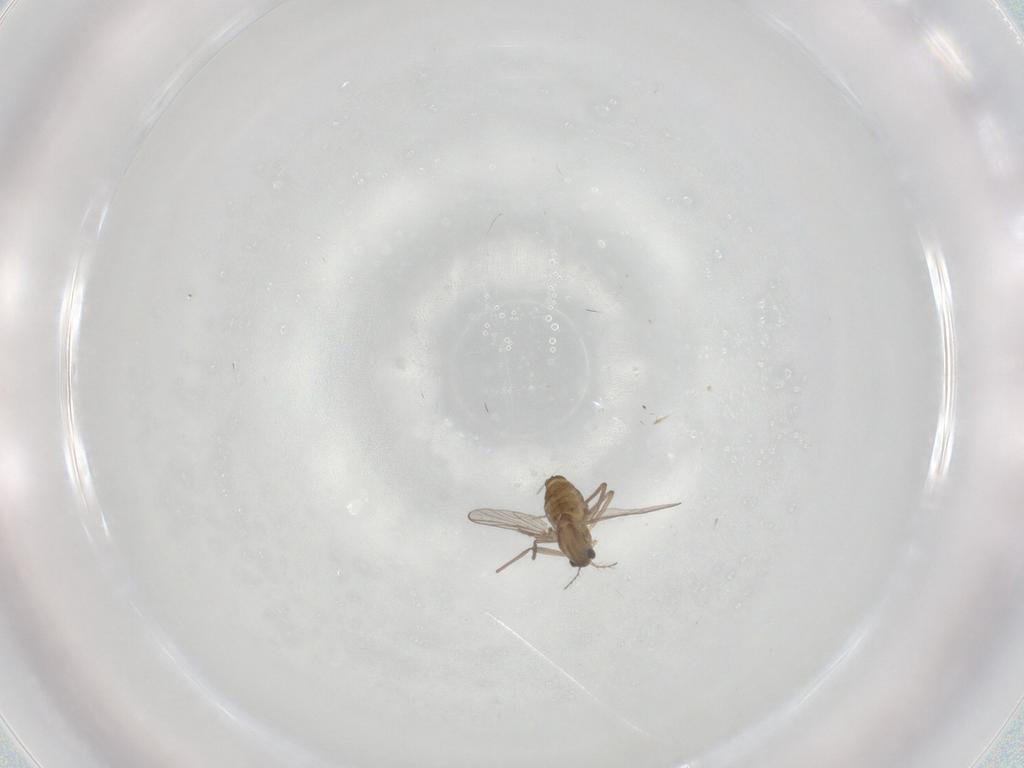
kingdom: Animalia
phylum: Arthropoda
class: Insecta
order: Diptera
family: Chironomidae
